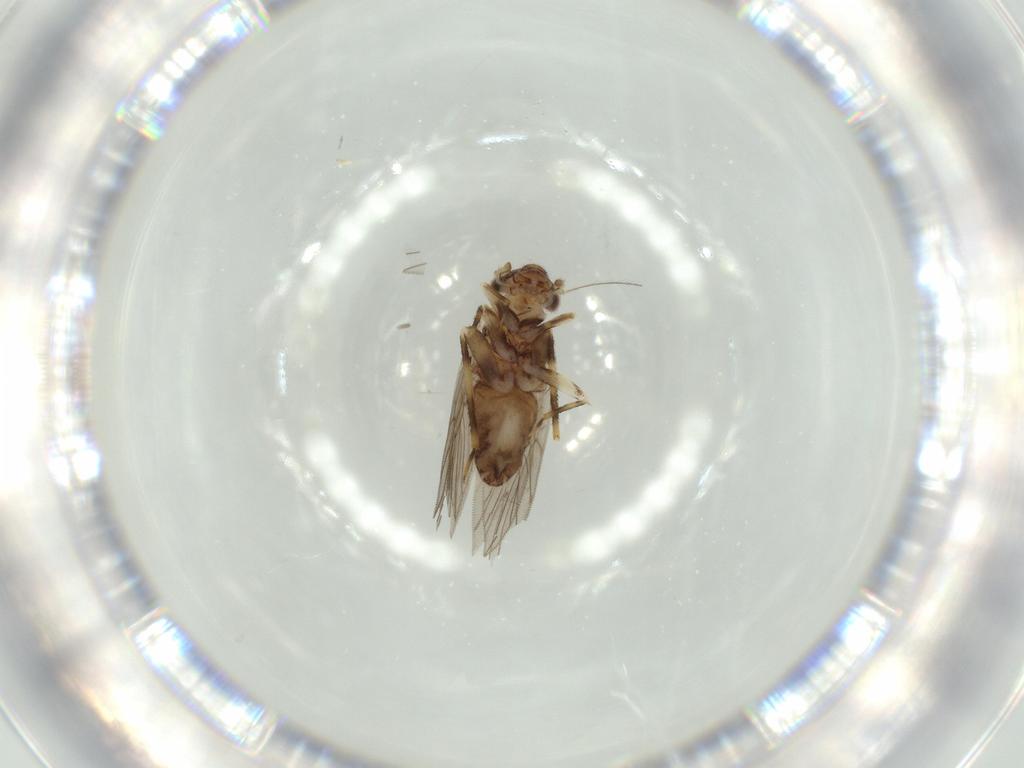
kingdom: Animalia
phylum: Arthropoda
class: Insecta
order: Psocodea
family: Lepidopsocidae
